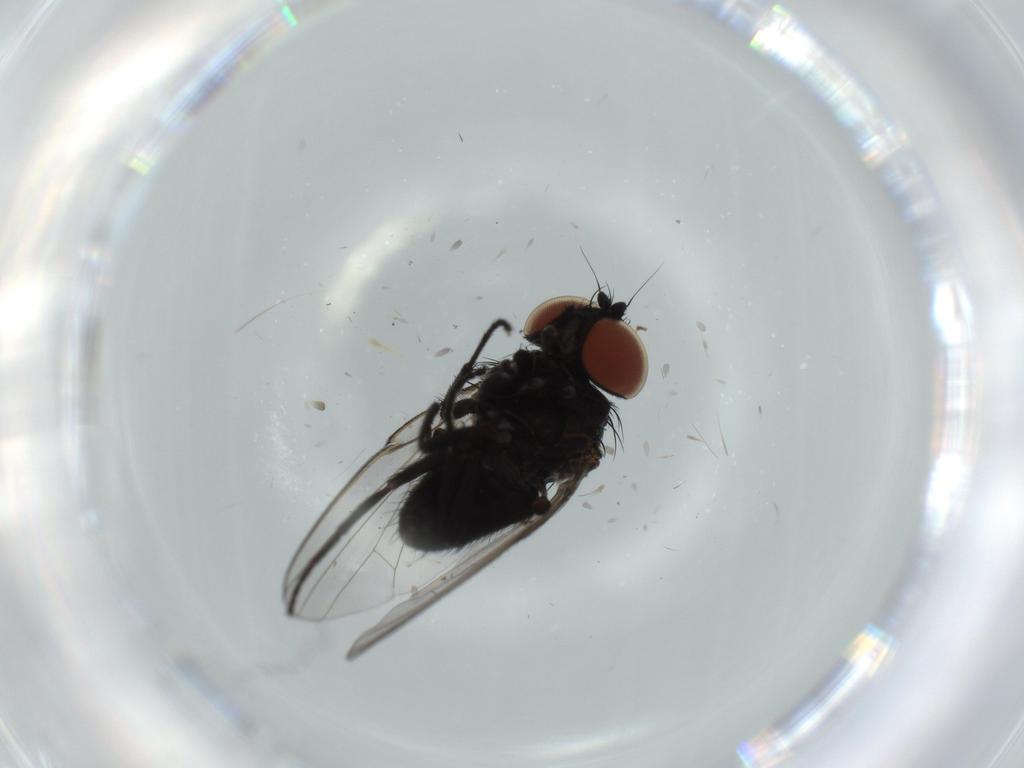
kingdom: Animalia
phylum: Arthropoda
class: Insecta
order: Diptera
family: Milichiidae
